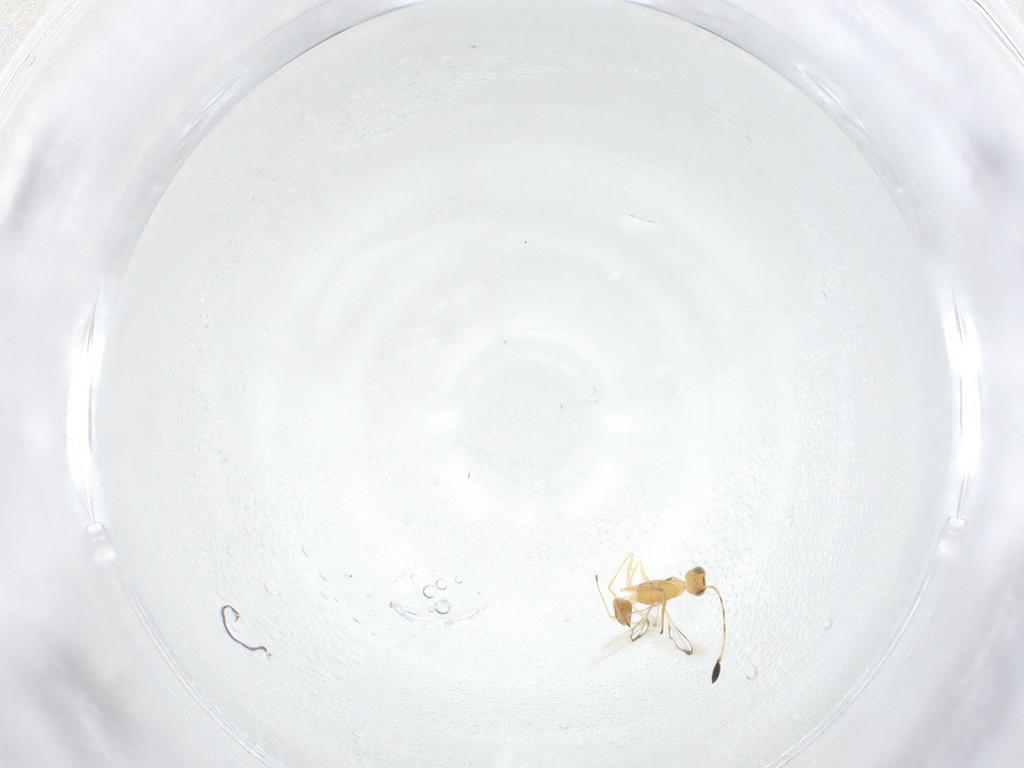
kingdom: Animalia
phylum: Arthropoda
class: Insecta
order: Hymenoptera
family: Mymaridae
